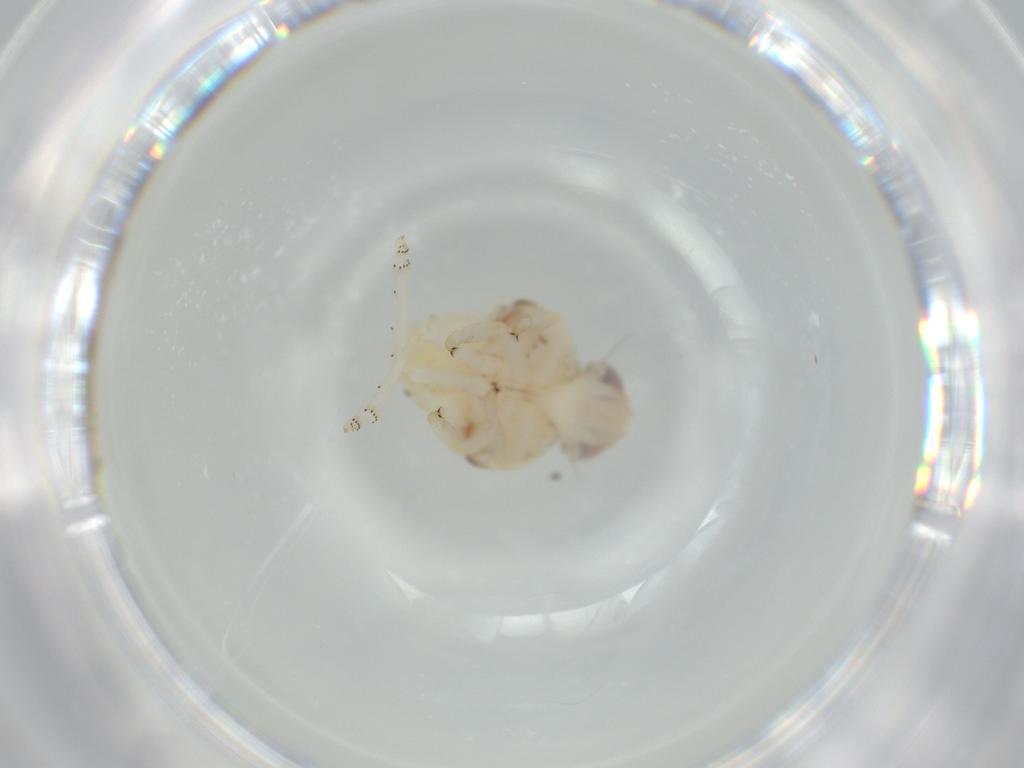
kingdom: Animalia
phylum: Arthropoda
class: Insecta
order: Hemiptera
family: Nogodinidae
